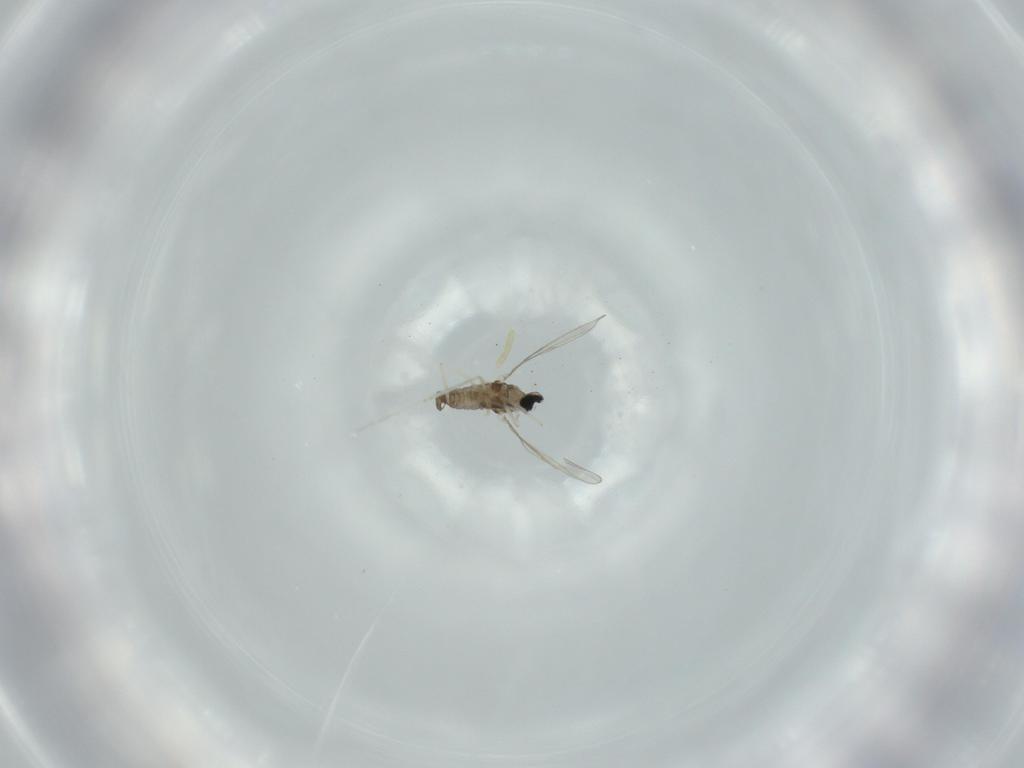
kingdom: Animalia
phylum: Arthropoda
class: Insecta
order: Diptera
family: Cecidomyiidae
